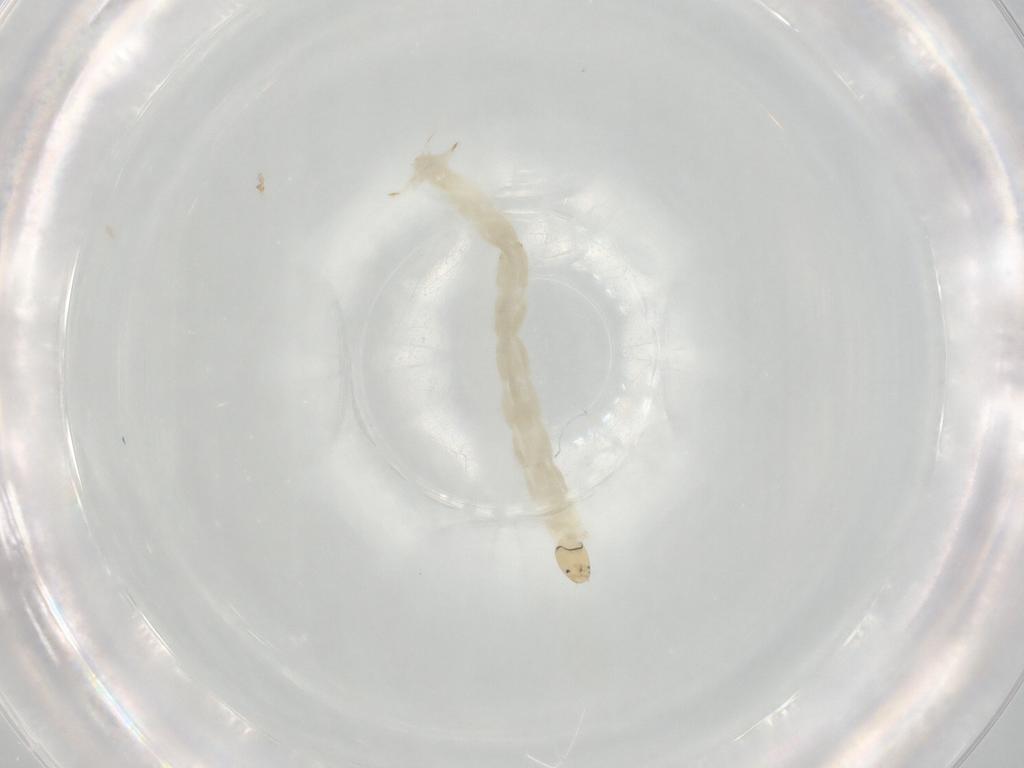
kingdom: Animalia
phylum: Arthropoda
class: Insecta
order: Diptera
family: Chironomidae
